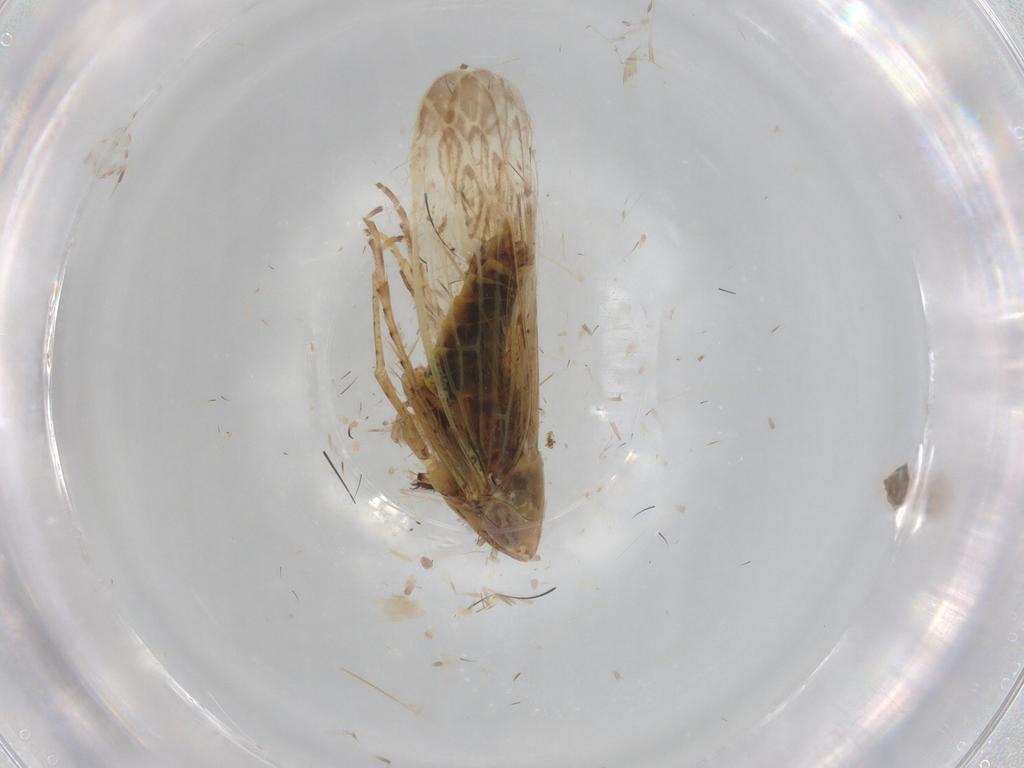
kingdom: Animalia
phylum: Arthropoda
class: Insecta
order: Hemiptera
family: Cicadellidae
